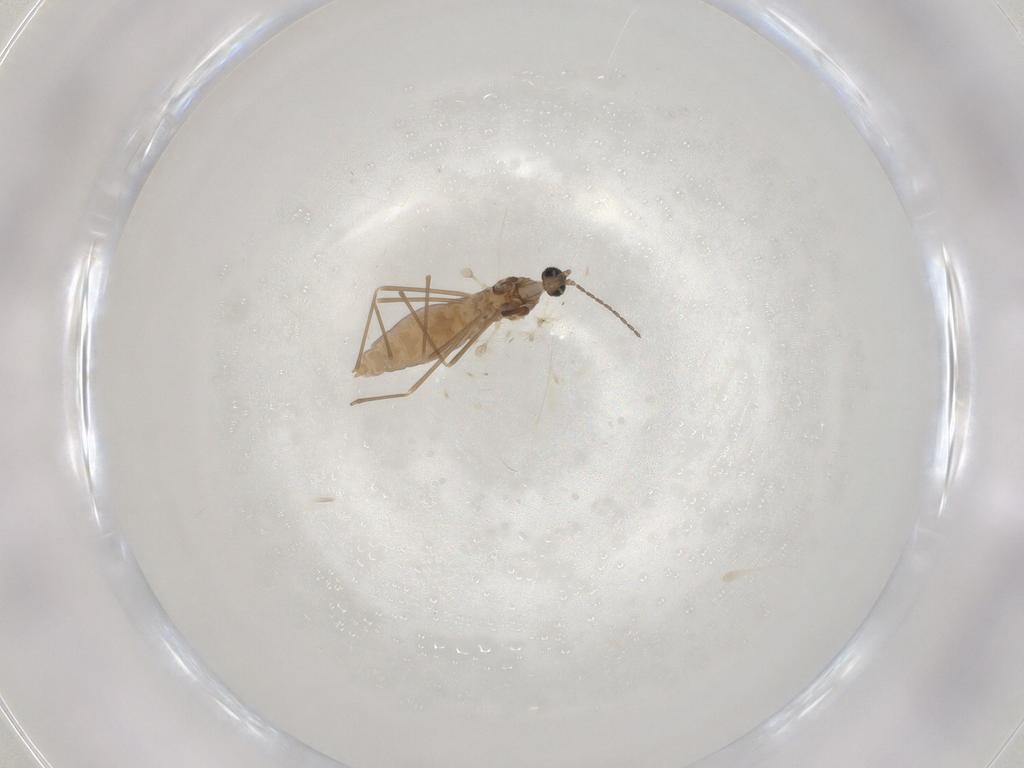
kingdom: Animalia
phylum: Arthropoda
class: Insecta
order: Diptera
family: Cecidomyiidae
